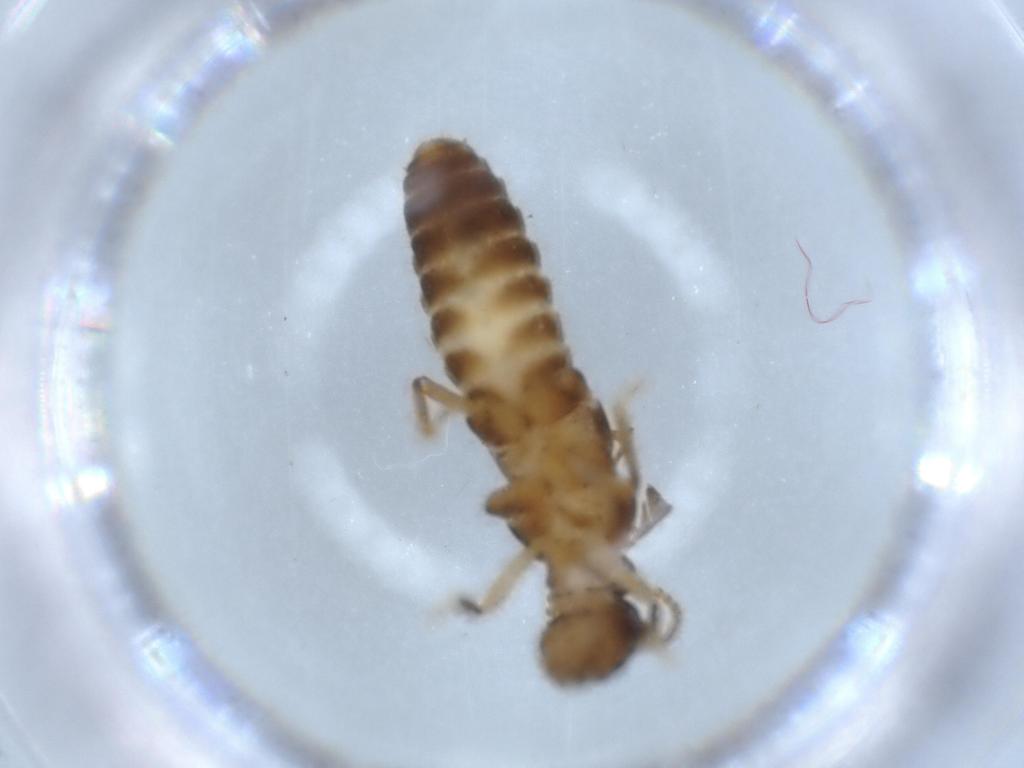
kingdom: Animalia
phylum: Arthropoda
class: Insecta
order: Blattodea
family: Termitidae
